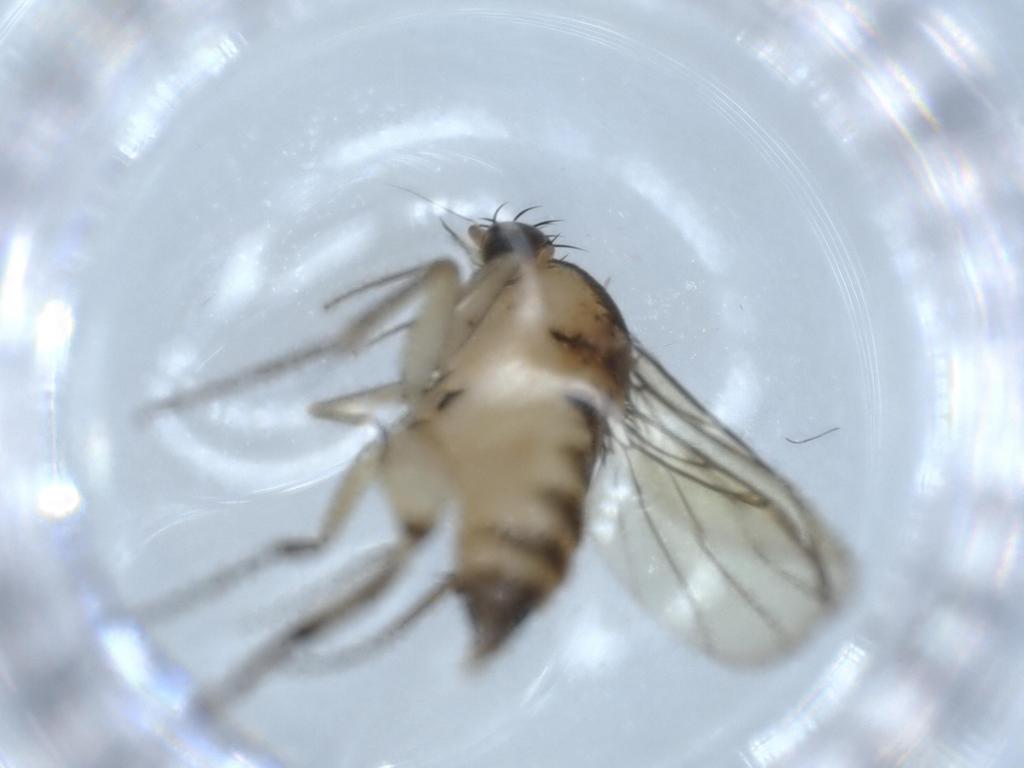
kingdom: Animalia
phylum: Arthropoda
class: Insecta
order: Diptera
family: Phoridae
